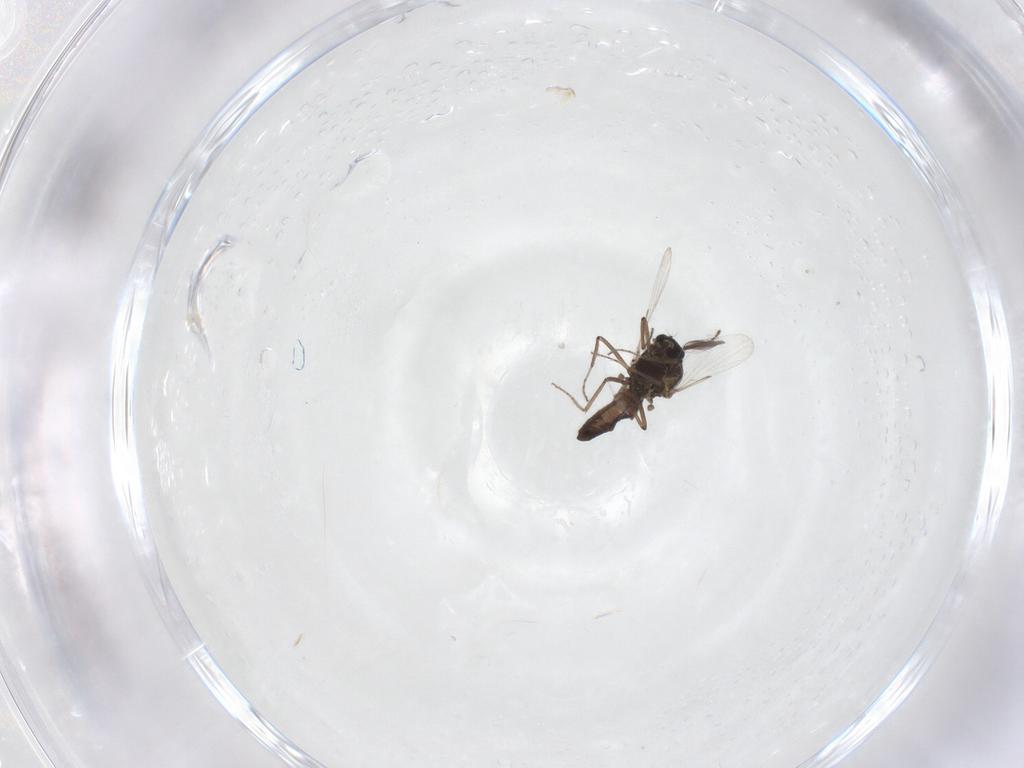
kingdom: Animalia
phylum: Arthropoda
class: Insecta
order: Diptera
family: Ceratopogonidae
